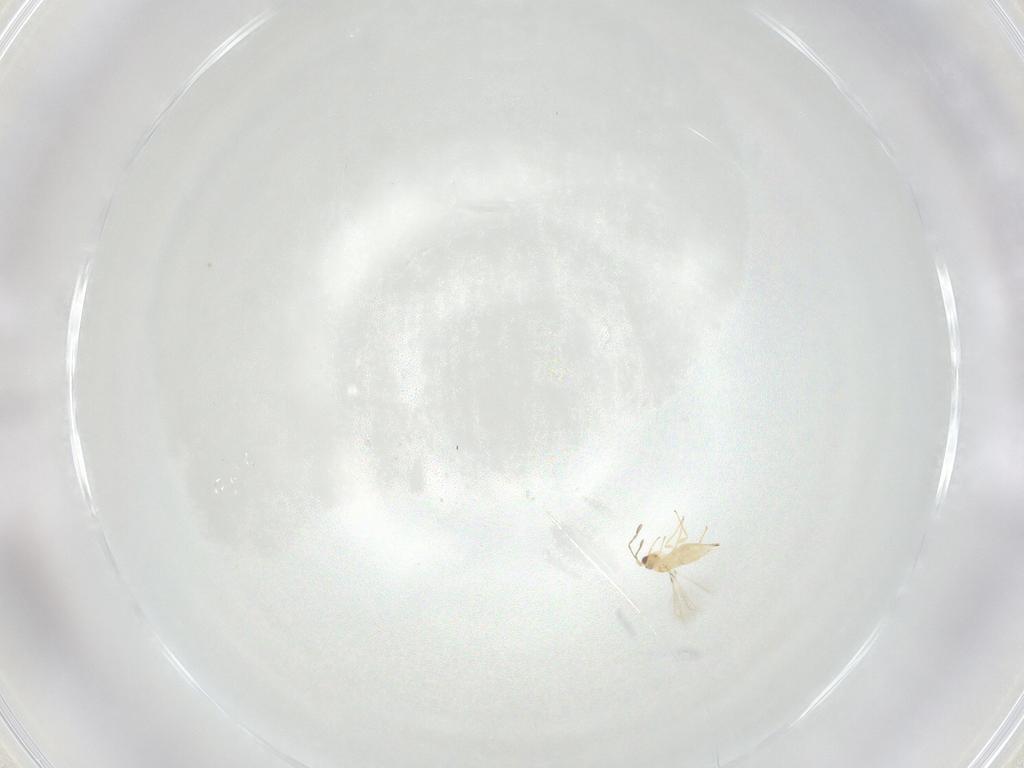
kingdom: Animalia
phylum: Arthropoda
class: Insecta
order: Hymenoptera
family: Mymaridae
